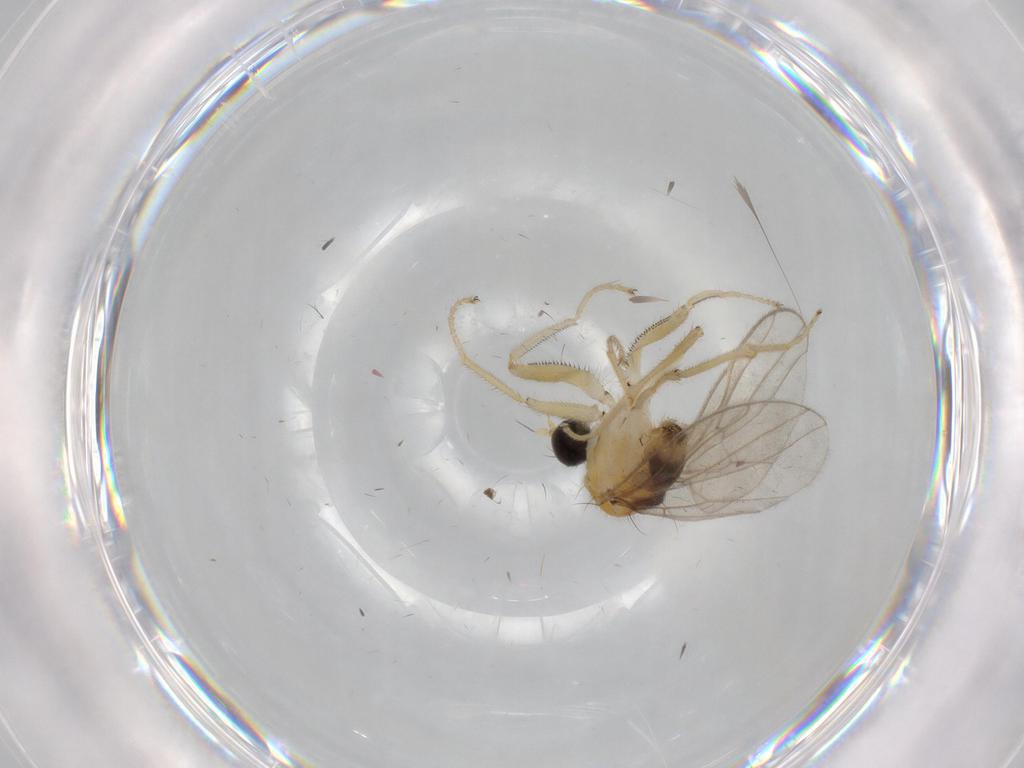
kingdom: Animalia
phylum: Arthropoda
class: Insecta
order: Diptera
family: Hybotidae
